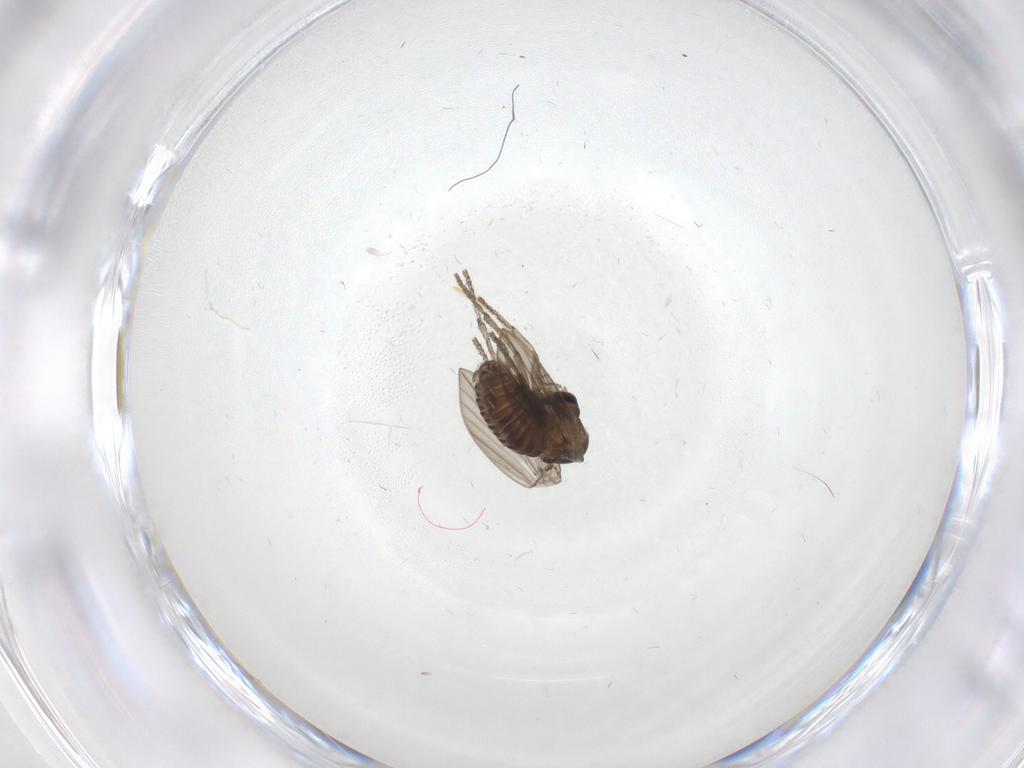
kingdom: Animalia
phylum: Arthropoda
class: Insecta
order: Diptera
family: Psychodidae
